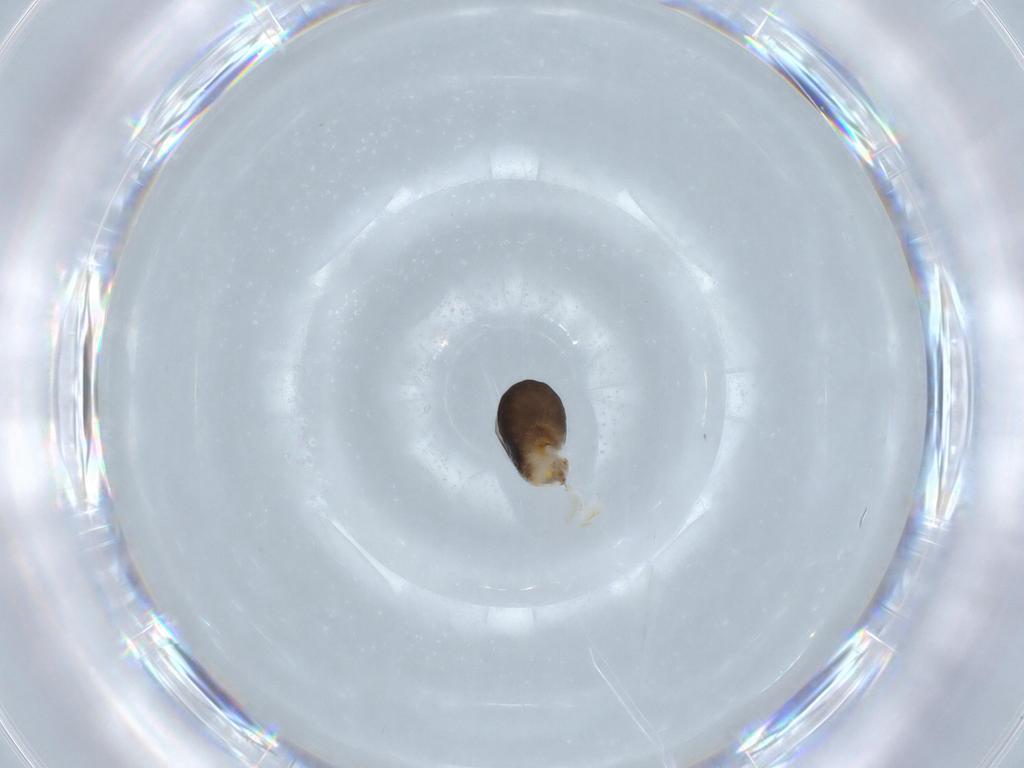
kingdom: Animalia
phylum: Arthropoda
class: Insecta
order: Hymenoptera
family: Dryinidae
